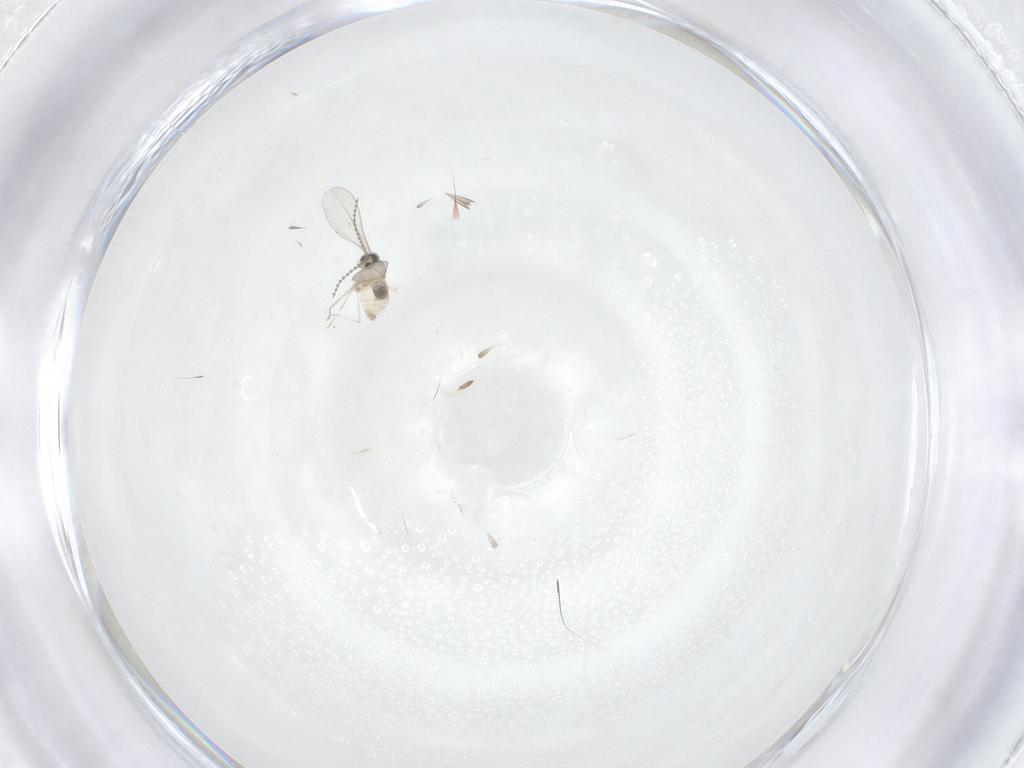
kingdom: Animalia
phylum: Arthropoda
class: Insecta
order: Diptera
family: Cecidomyiidae
